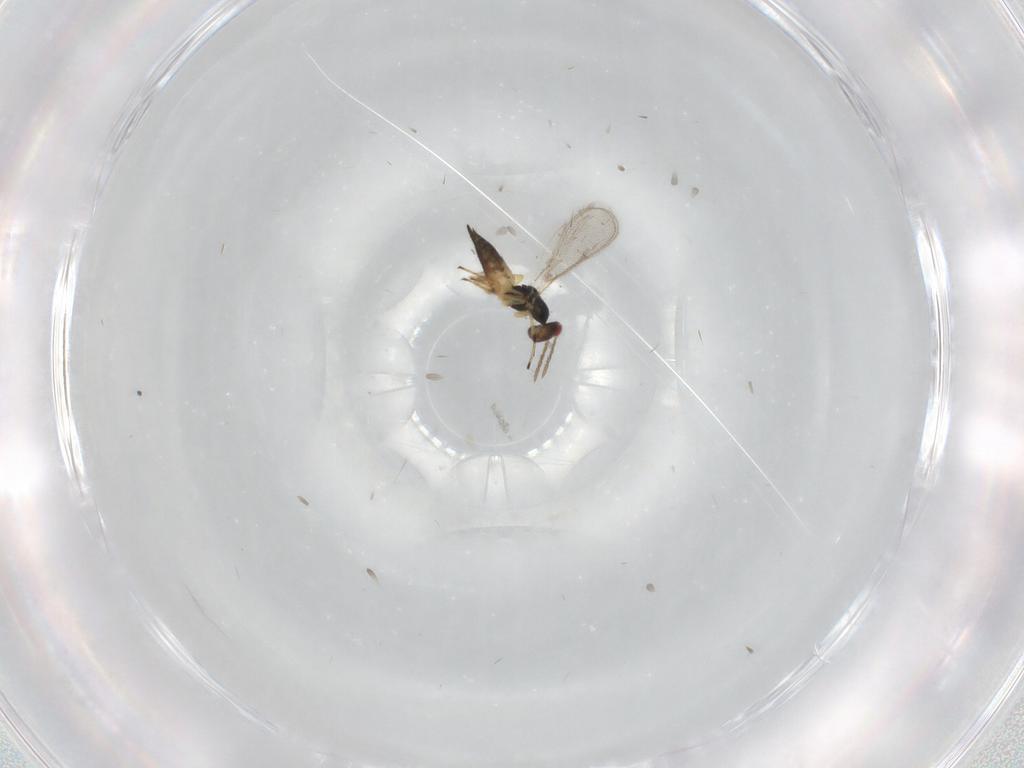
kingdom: Animalia
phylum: Arthropoda
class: Insecta
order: Hymenoptera
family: Eulophidae
